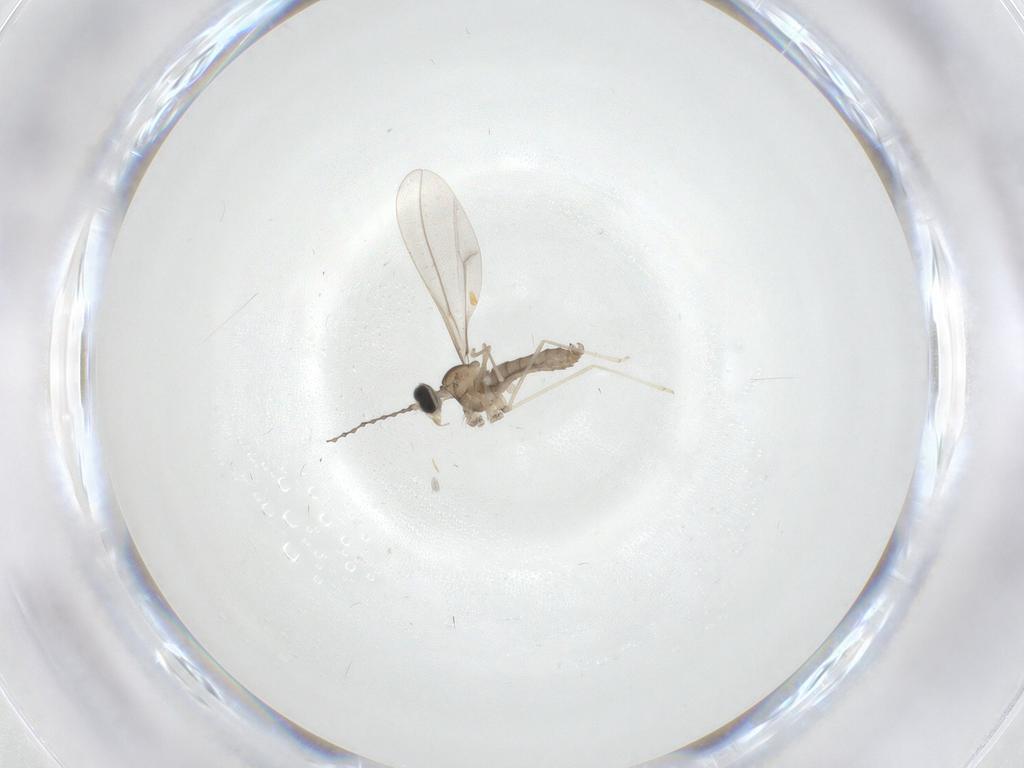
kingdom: Animalia
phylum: Arthropoda
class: Insecta
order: Diptera
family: Cecidomyiidae
